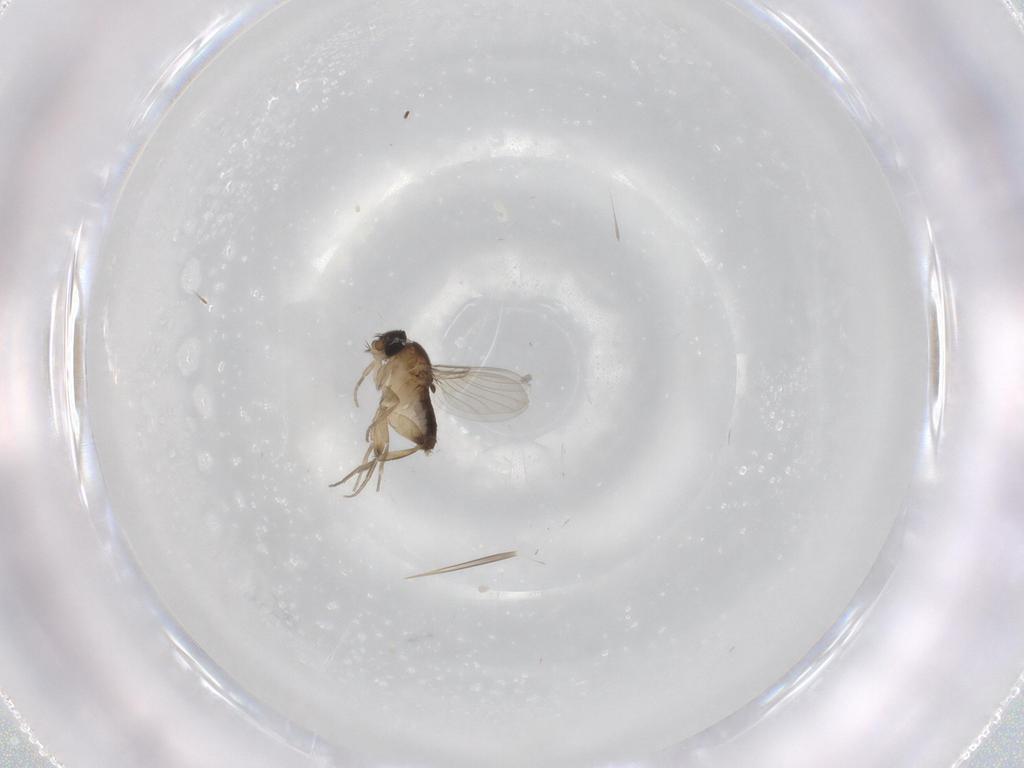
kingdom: Animalia
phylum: Arthropoda
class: Insecta
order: Diptera
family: Phoridae
